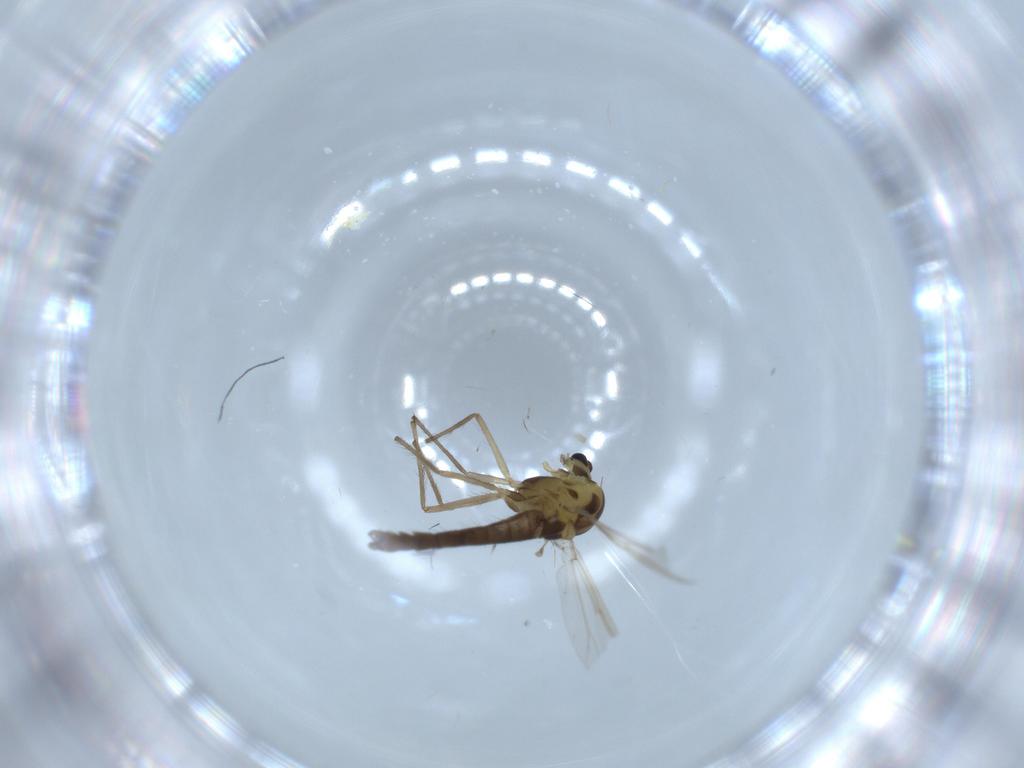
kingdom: Animalia
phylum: Arthropoda
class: Insecta
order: Diptera
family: Chironomidae
